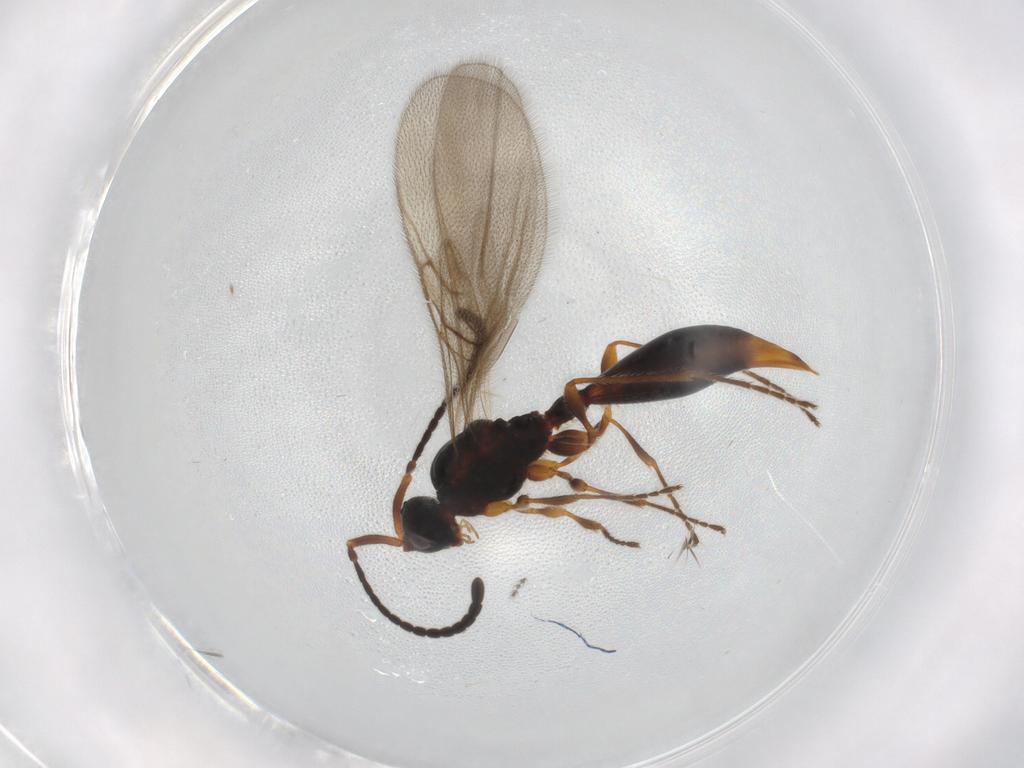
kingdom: Animalia
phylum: Arthropoda
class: Insecta
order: Hymenoptera
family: Diapriidae
